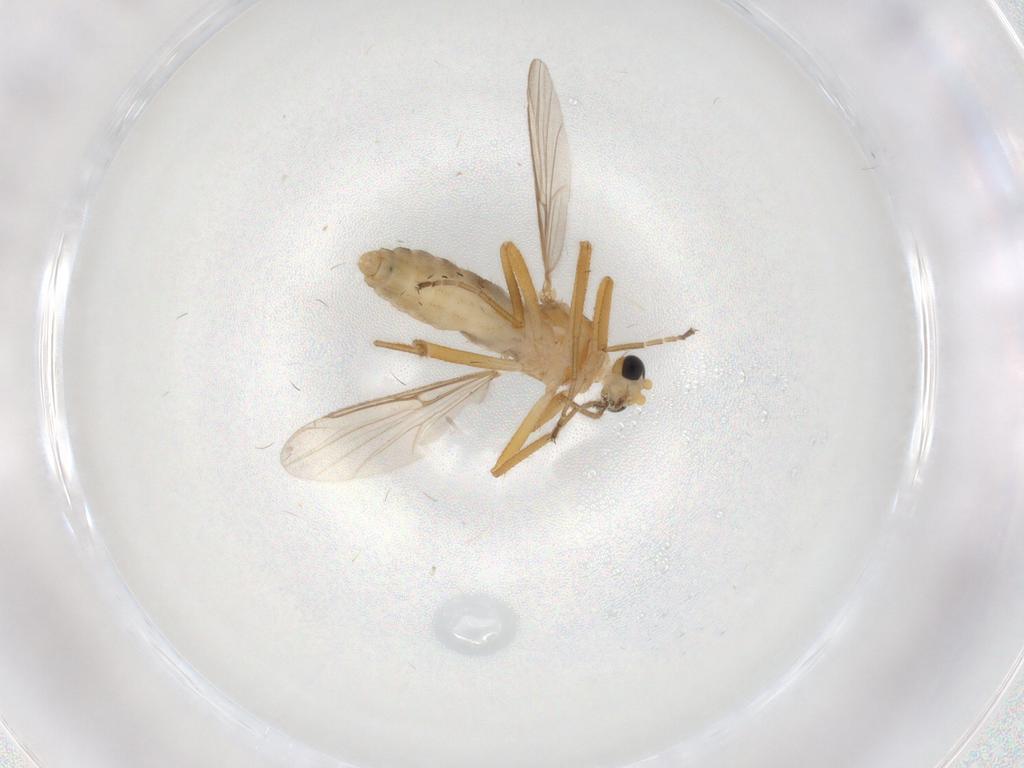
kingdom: Animalia
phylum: Arthropoda
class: Insecta
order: Diptera
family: Ceratopogonidae
